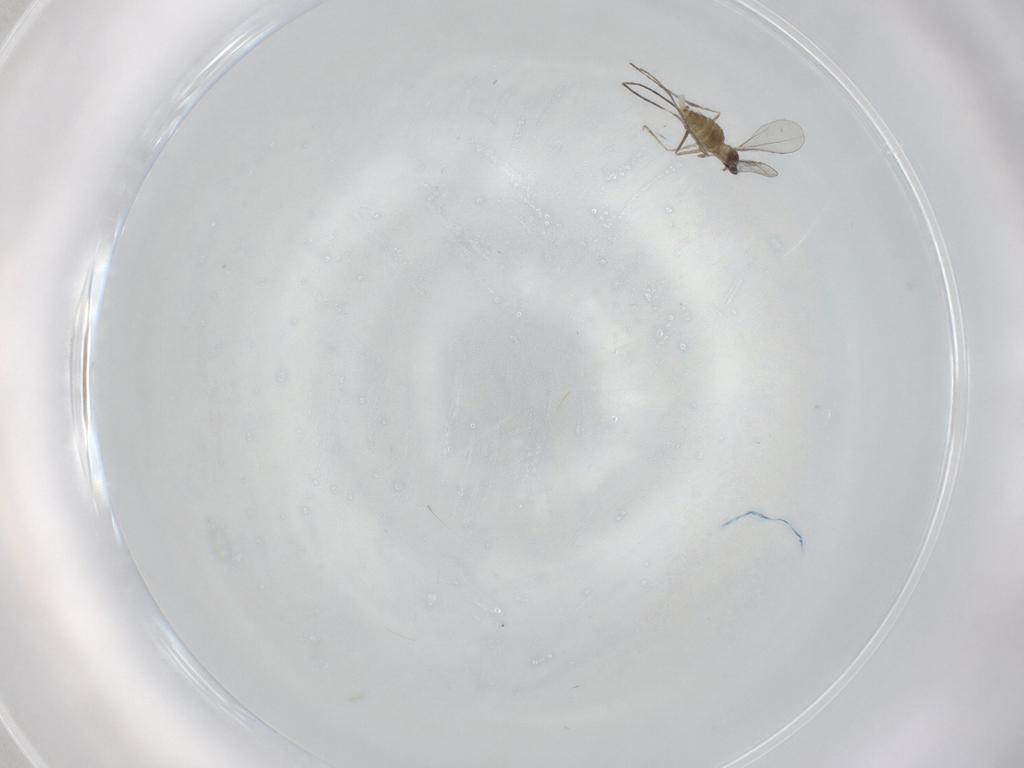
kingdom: Animalia
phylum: Arthropoda
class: Insecta
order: Diptera
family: Cecidomyiidae
